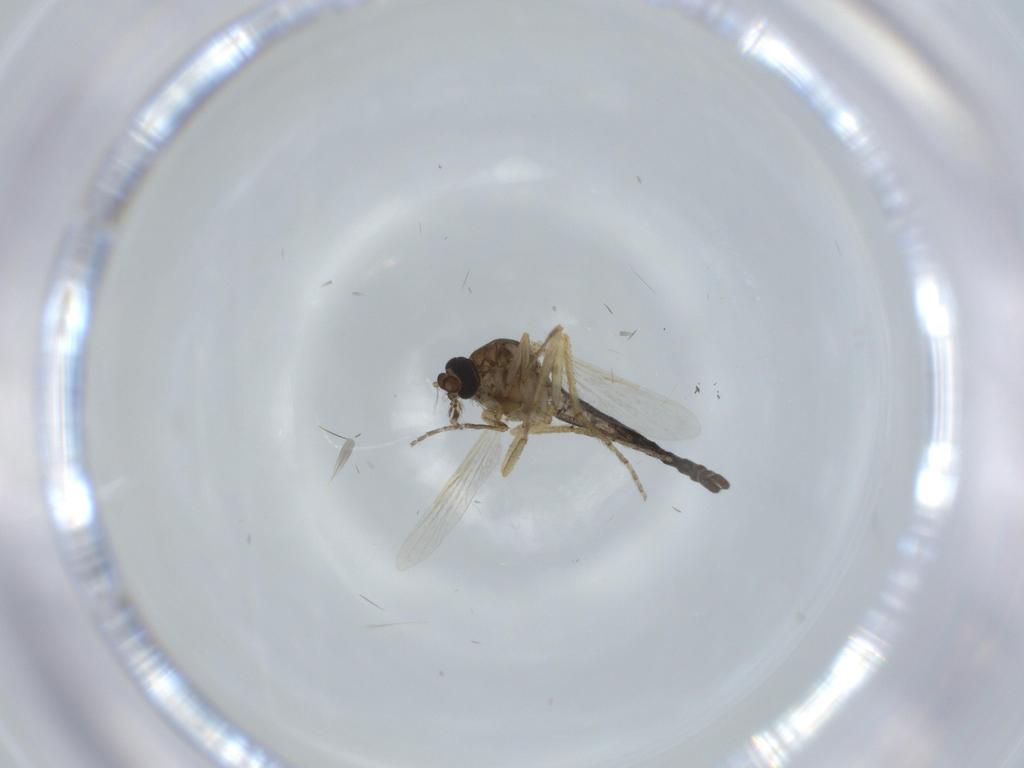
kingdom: Animalia
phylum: Arthropoda
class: Insecta
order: Diptera
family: Ceratopogonidae
